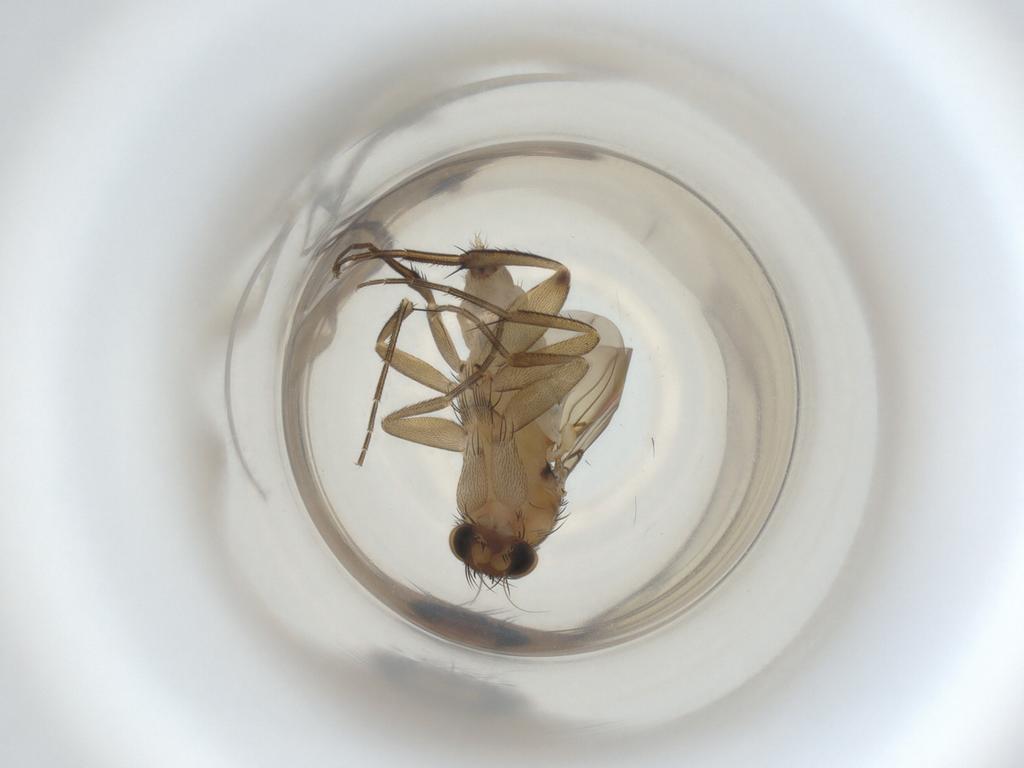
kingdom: Animalia
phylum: Arthropoda
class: Insecta
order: Diptera
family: Phoridae
